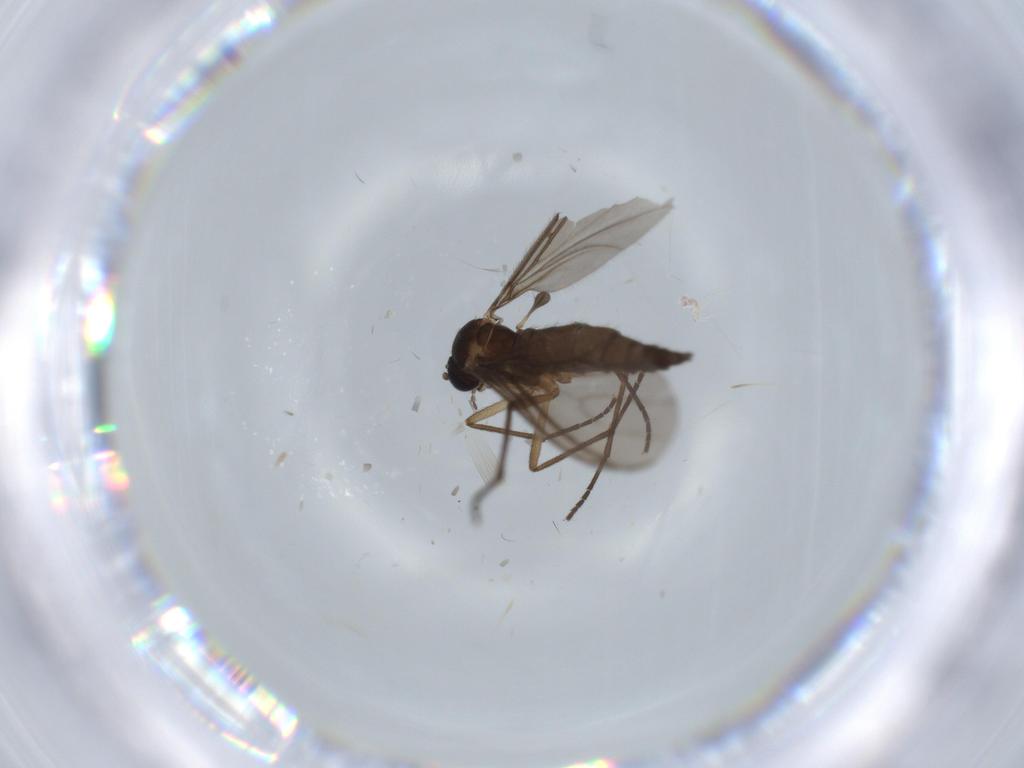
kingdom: Animalia
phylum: Arthropoda
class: Insecta
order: Diptera
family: Sciaridae
